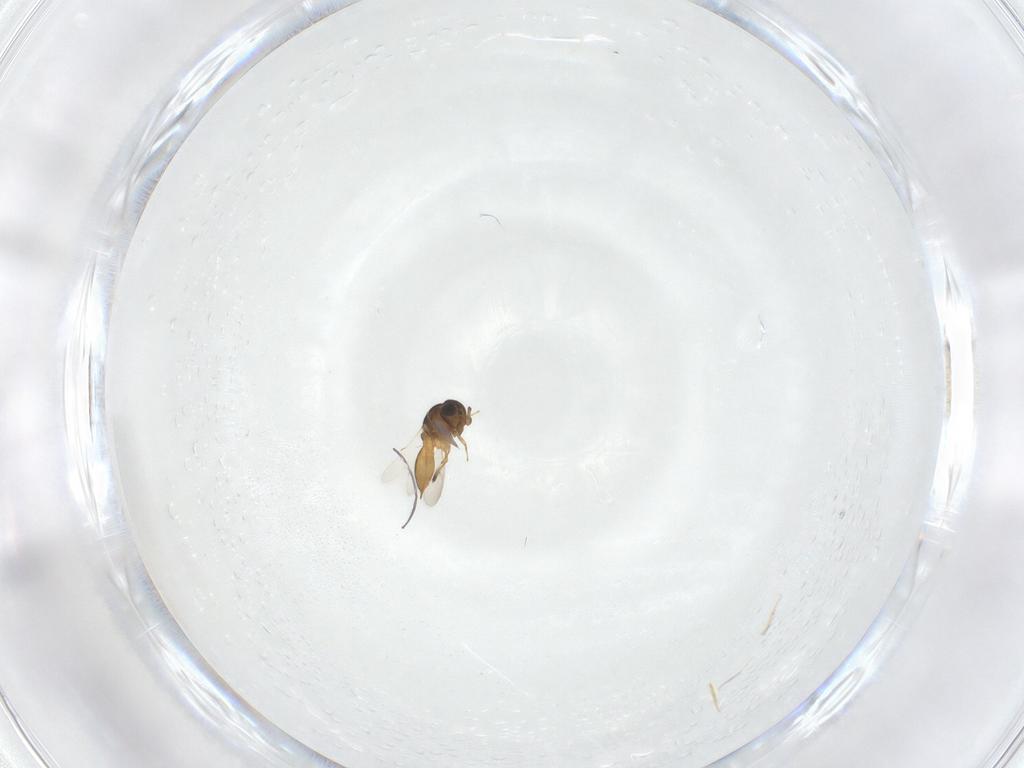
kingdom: Animalia
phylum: Arthropoda
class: Insecta
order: Hymenoptera
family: Scelionidae
